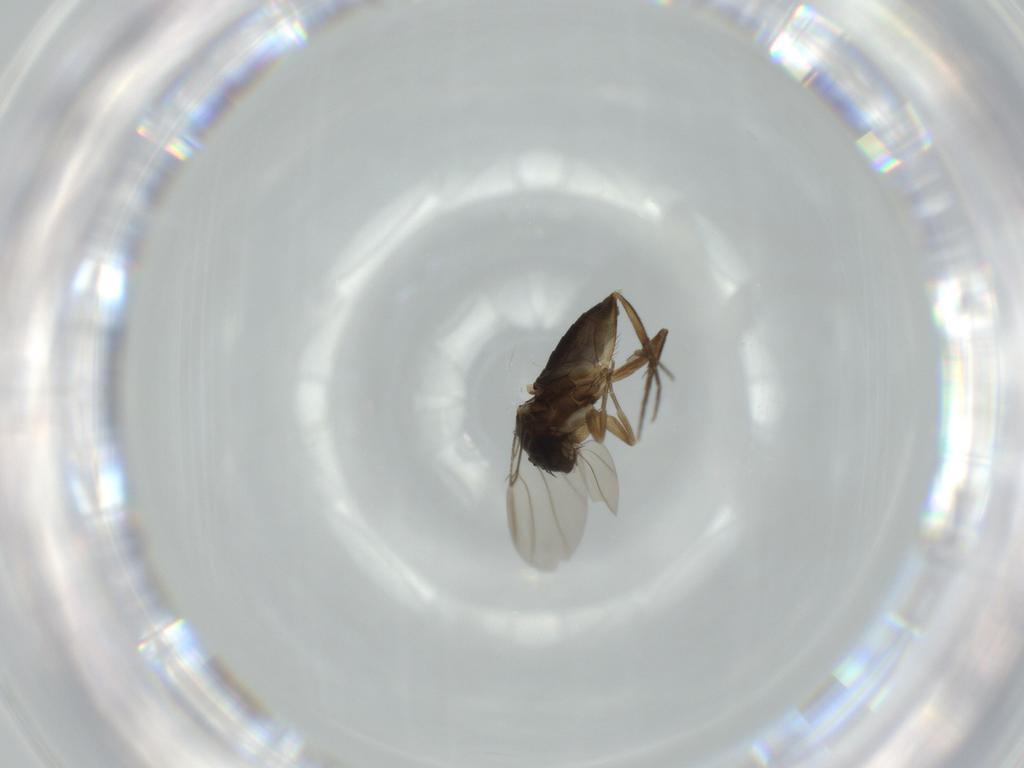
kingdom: Animalia
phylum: Arthropoda
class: Insecta
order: Diptera
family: Phoridae
